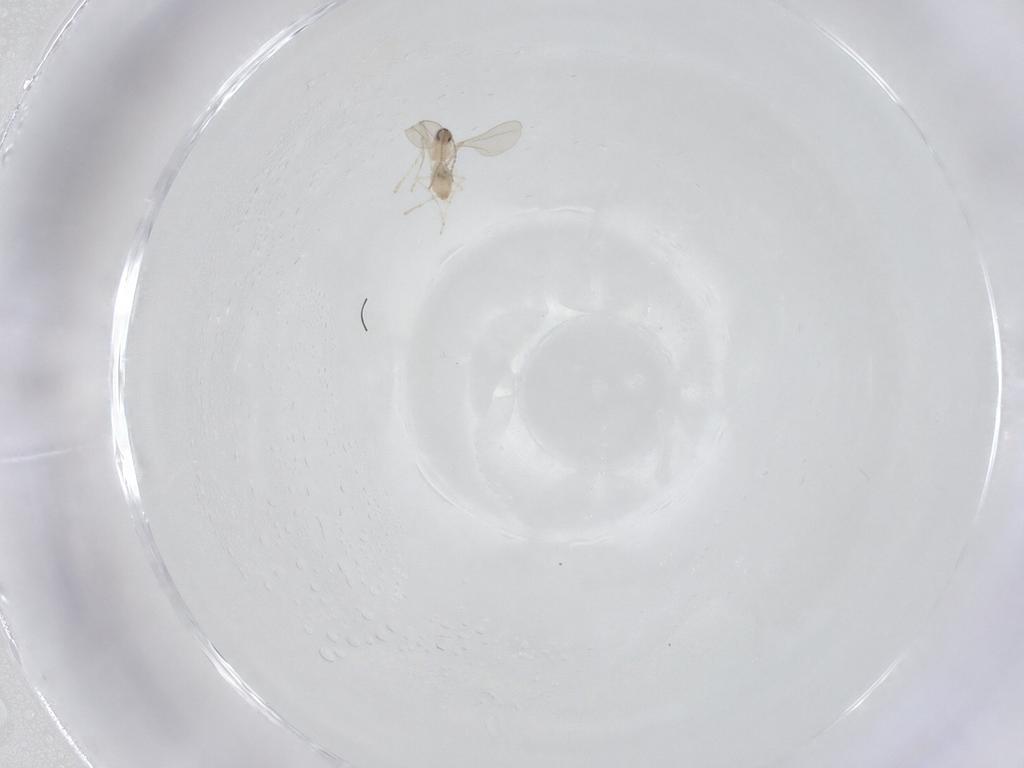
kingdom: Animalia
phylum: Arthropoda
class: Insecta
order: Diptera
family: Cecidomyiidae
